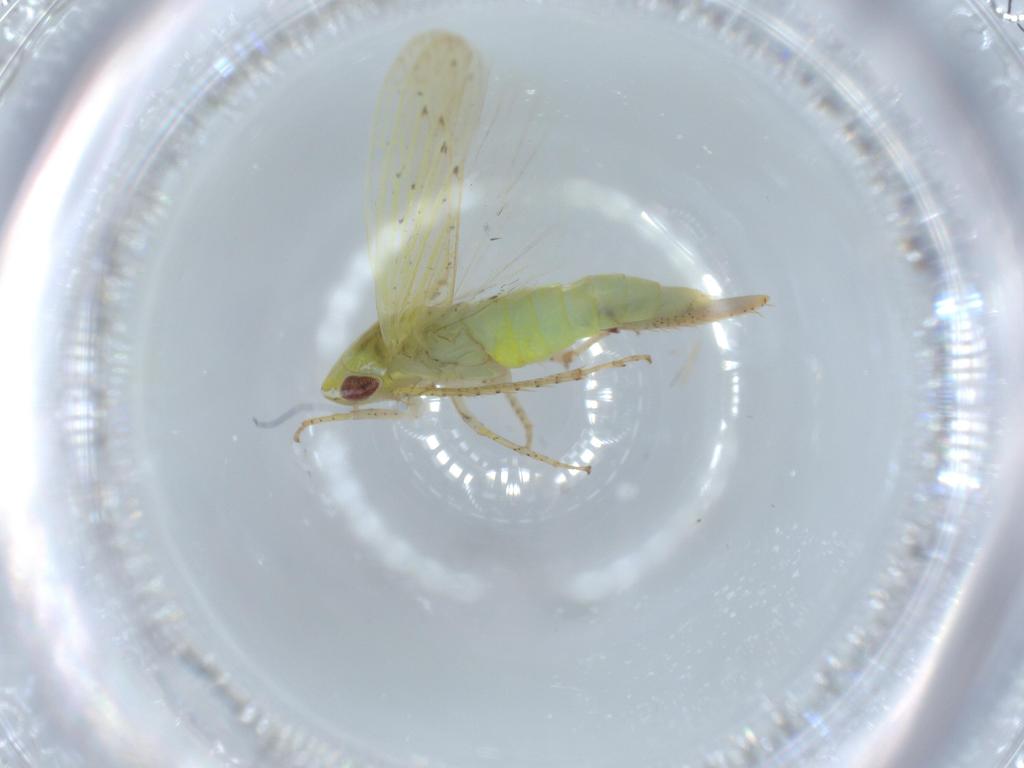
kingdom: Animalia
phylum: Arthropoda
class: Insecta
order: Hemiptera
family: Cicadellidae
